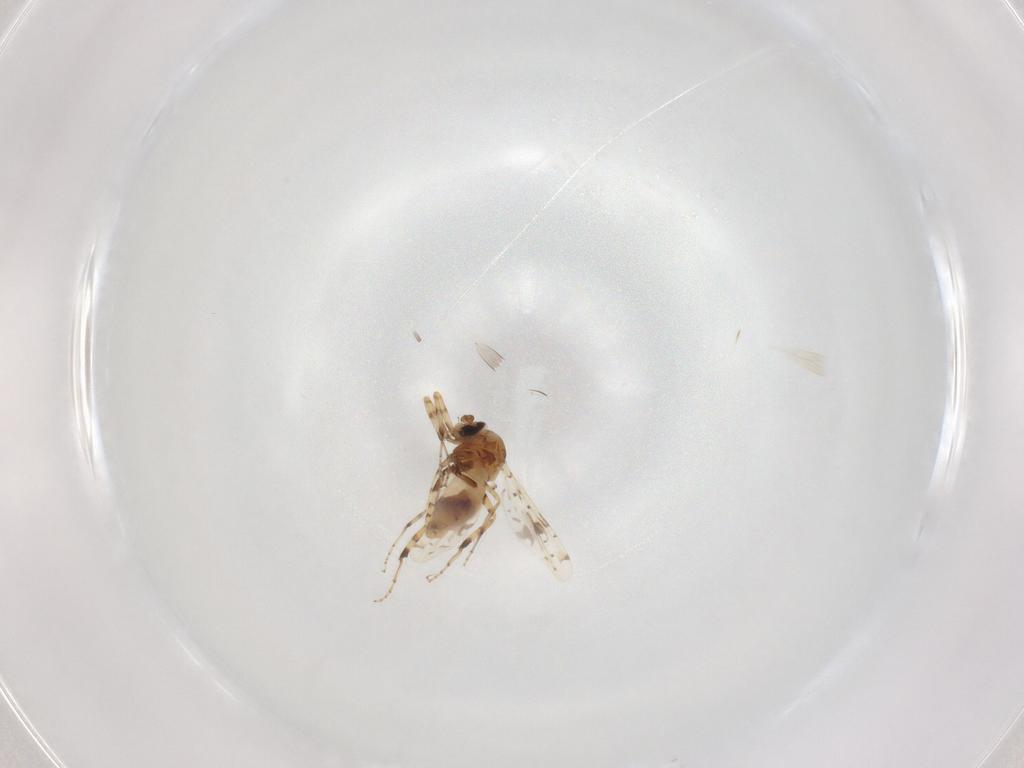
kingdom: Animalia
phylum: Arthropoda
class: Insecta
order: Diptera
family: Ceratopogonidae
